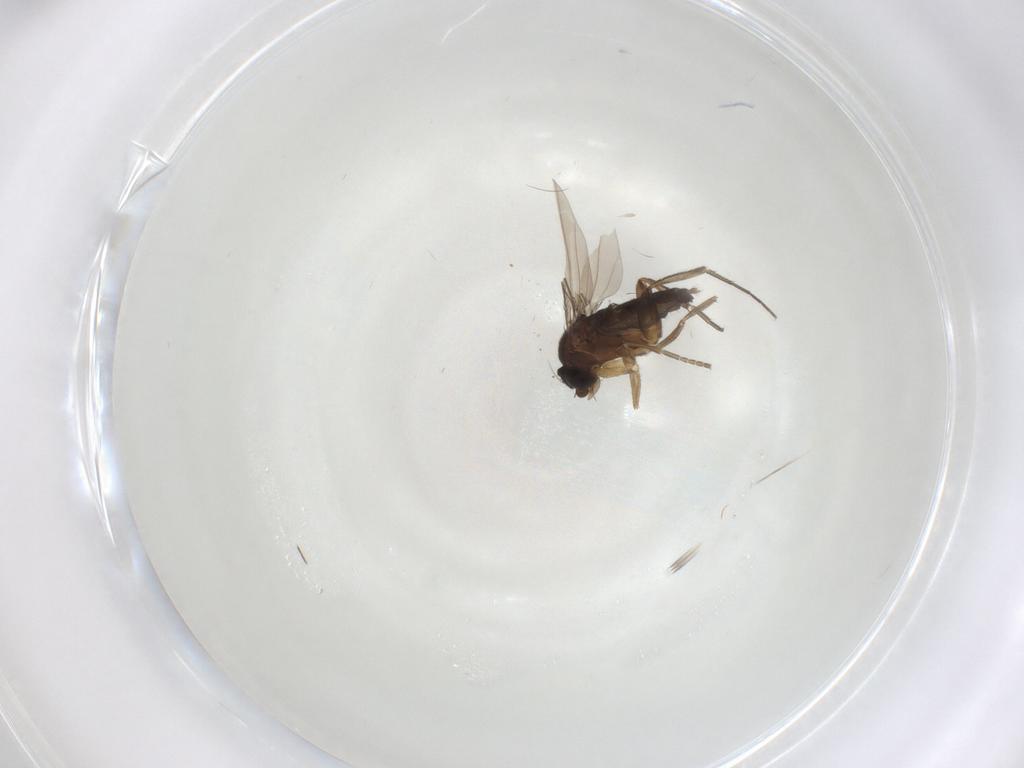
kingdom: Animalia
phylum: Arthropoda
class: Insecta
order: Diptera
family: Phoridae
